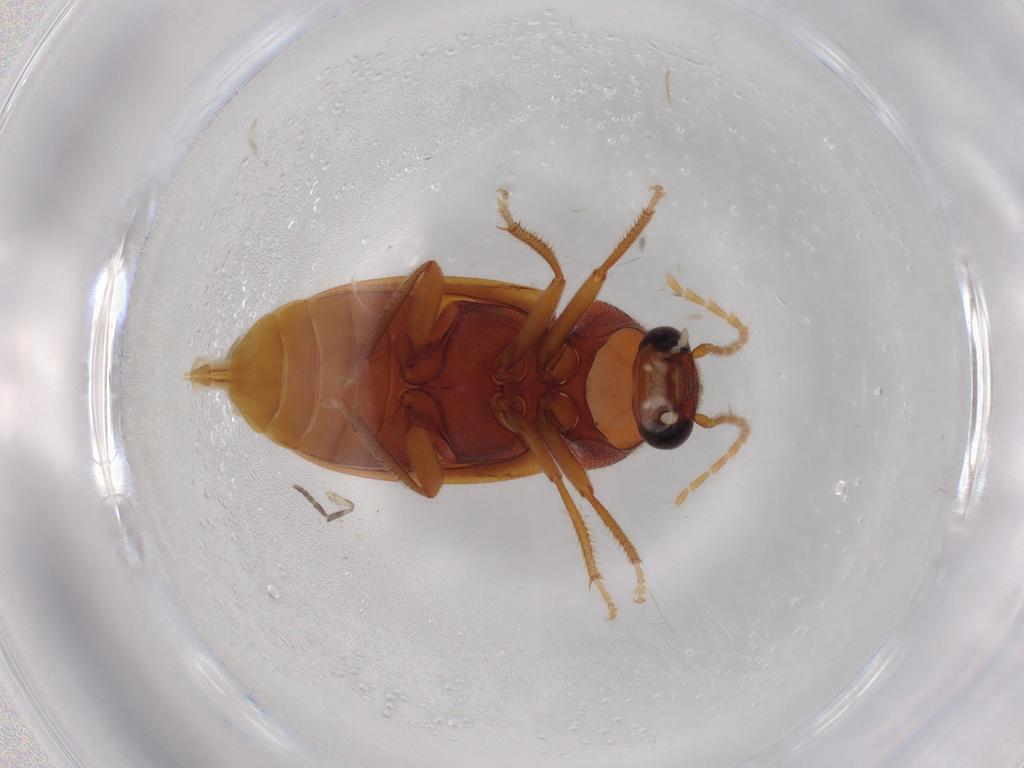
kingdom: Animalia
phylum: Arthropoda
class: Insecta
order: Coleoptera
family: Ptilodactylidae
